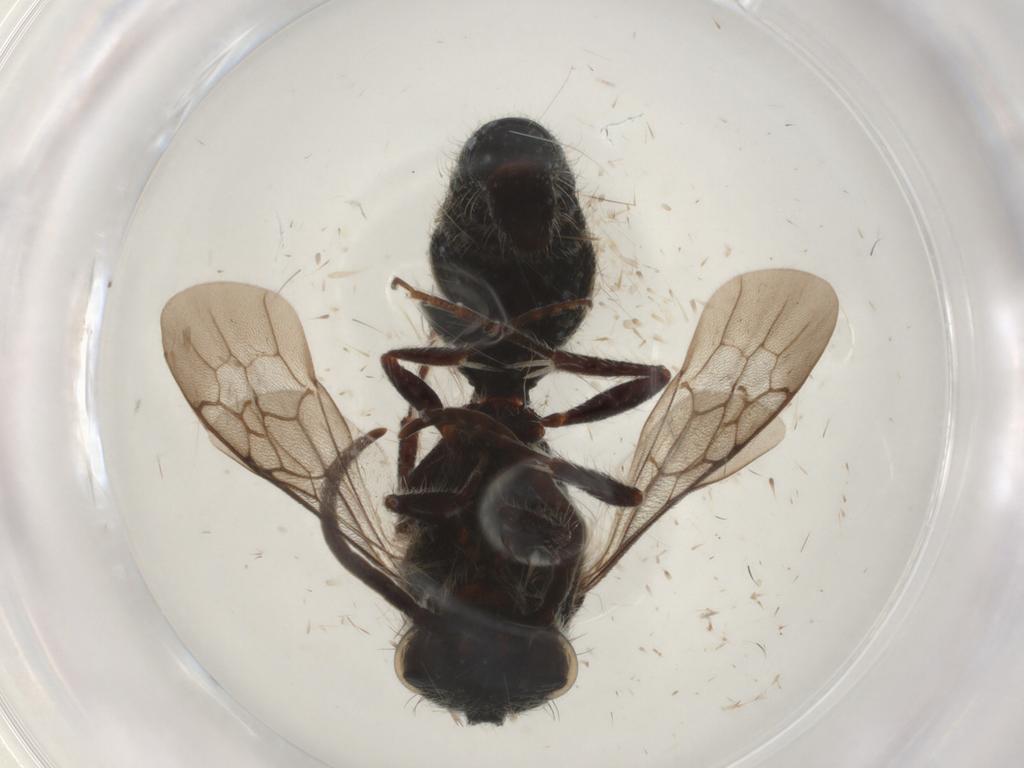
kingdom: Animalia
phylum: Arthropoda
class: Insecta
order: Hymenoptera
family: Mutillidae
